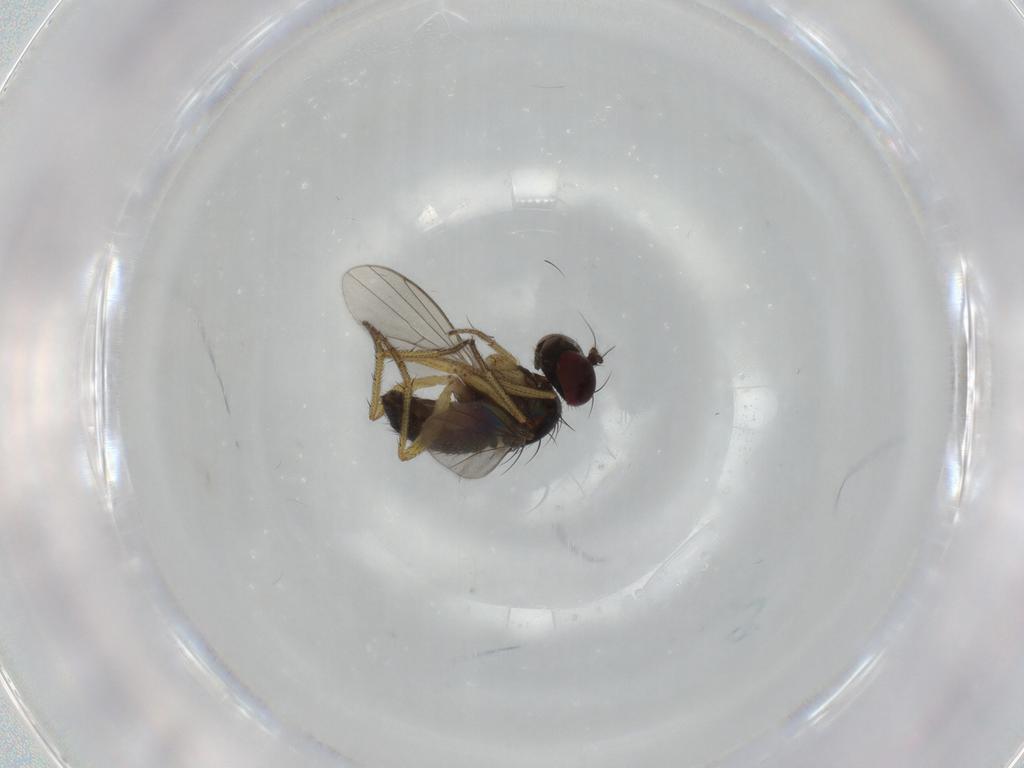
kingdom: Animalia
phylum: Arthropoda
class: Insecta
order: Diptera
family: Dolichopodidae
